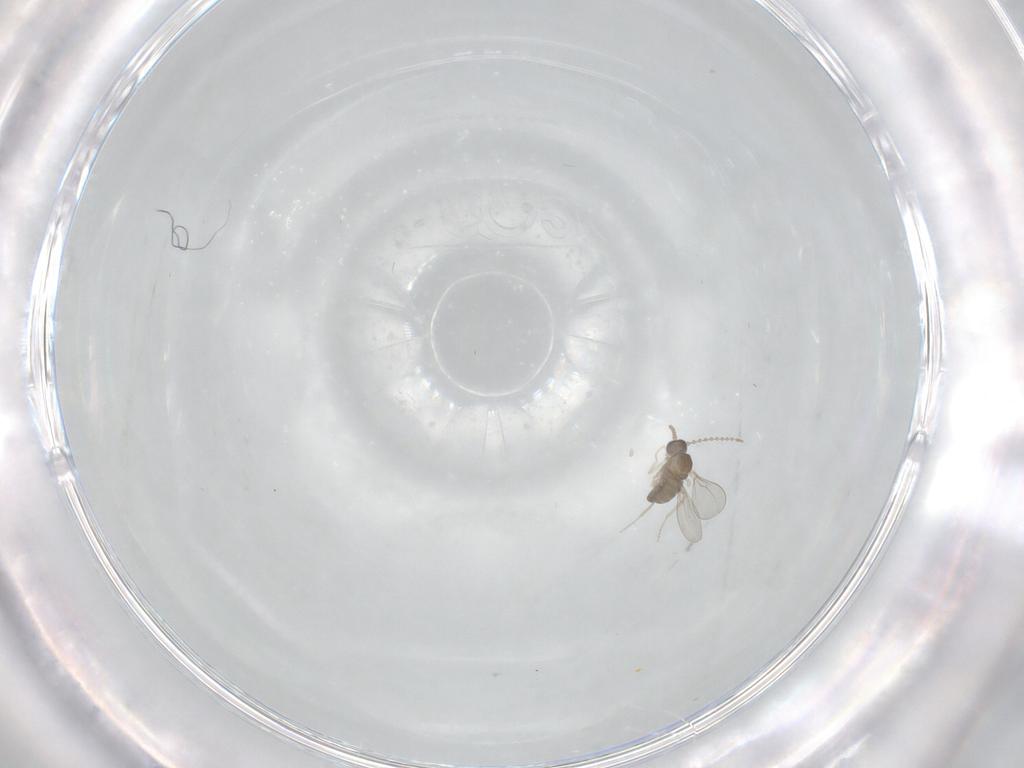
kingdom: Animalia
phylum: Arthropoda
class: Insecta
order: Diptera
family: Cecidomyiidae
